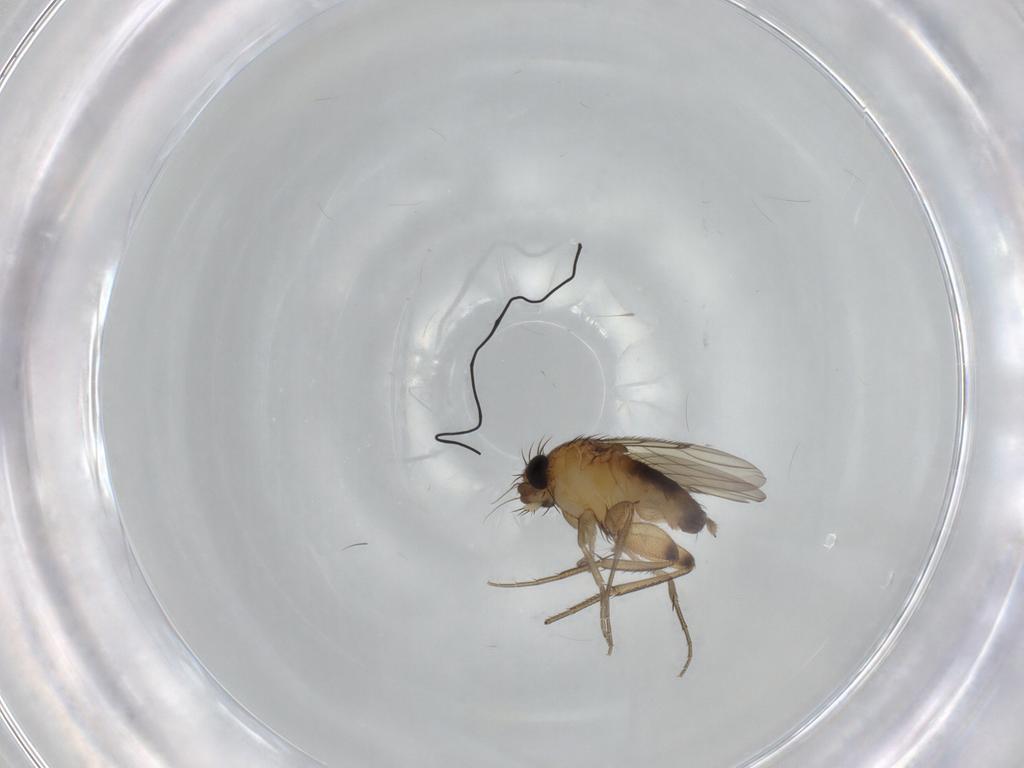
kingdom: Animalia
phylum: Arthropoda
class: Insecta
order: Diptera
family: Phoridae
